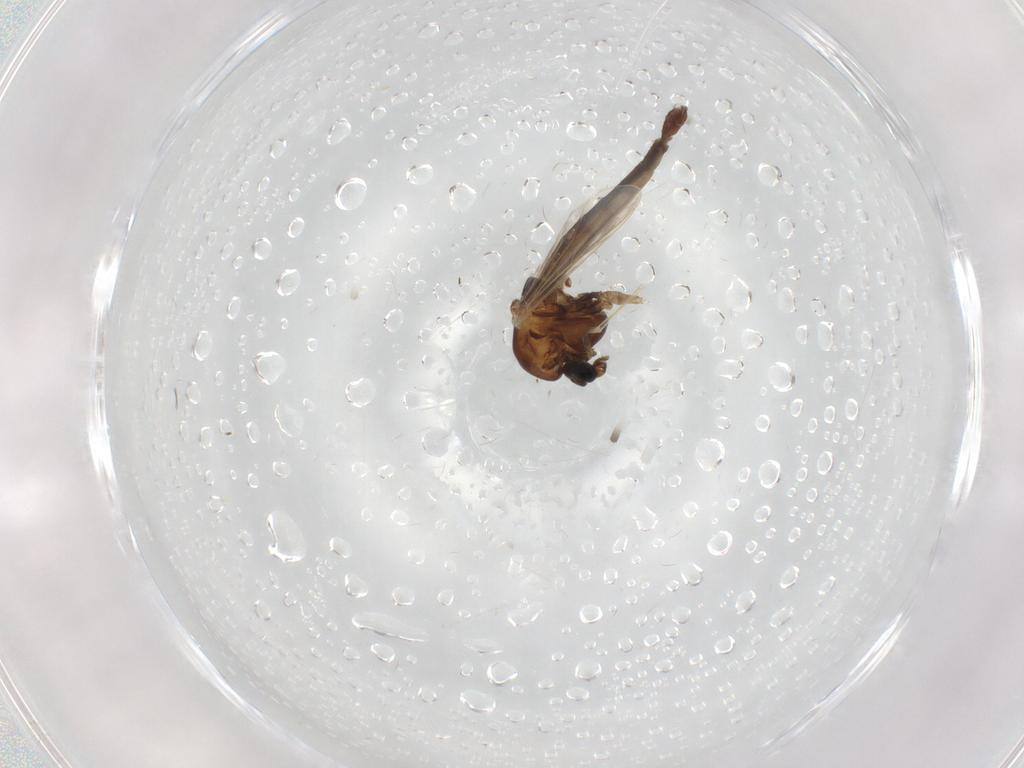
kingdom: Animalia
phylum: Arthropoda
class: Insecta
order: Diptera
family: Chironomidae
